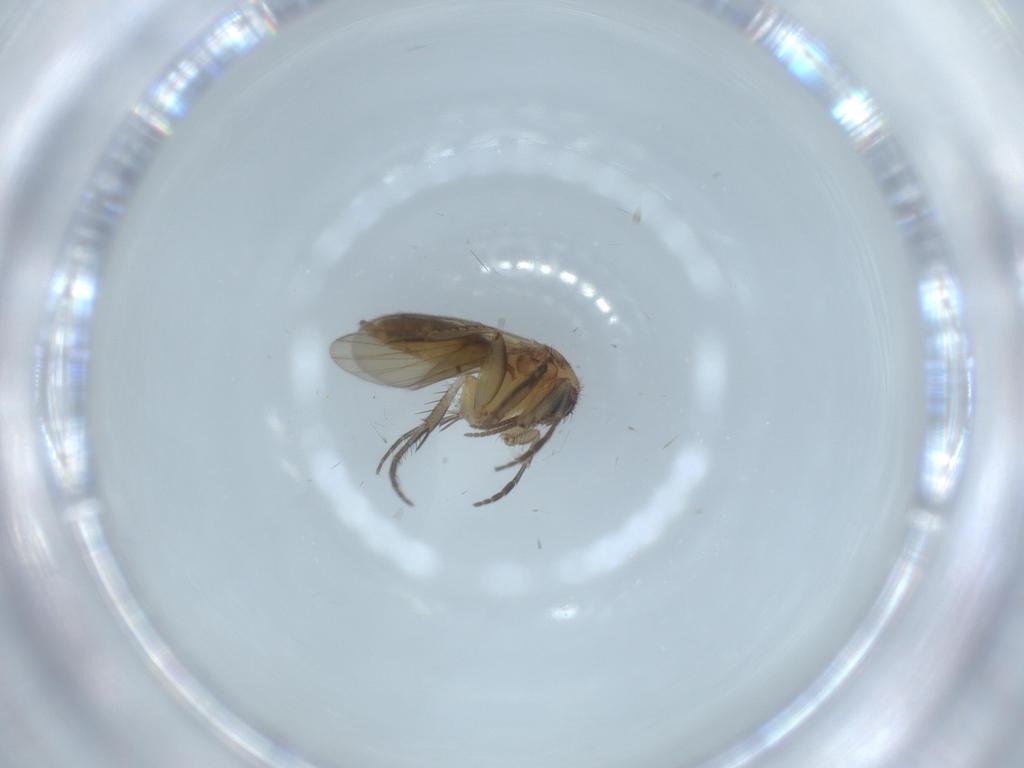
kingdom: Animalia
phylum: Arthropoda
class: Insecta
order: Diptera
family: Mycetophilidae
